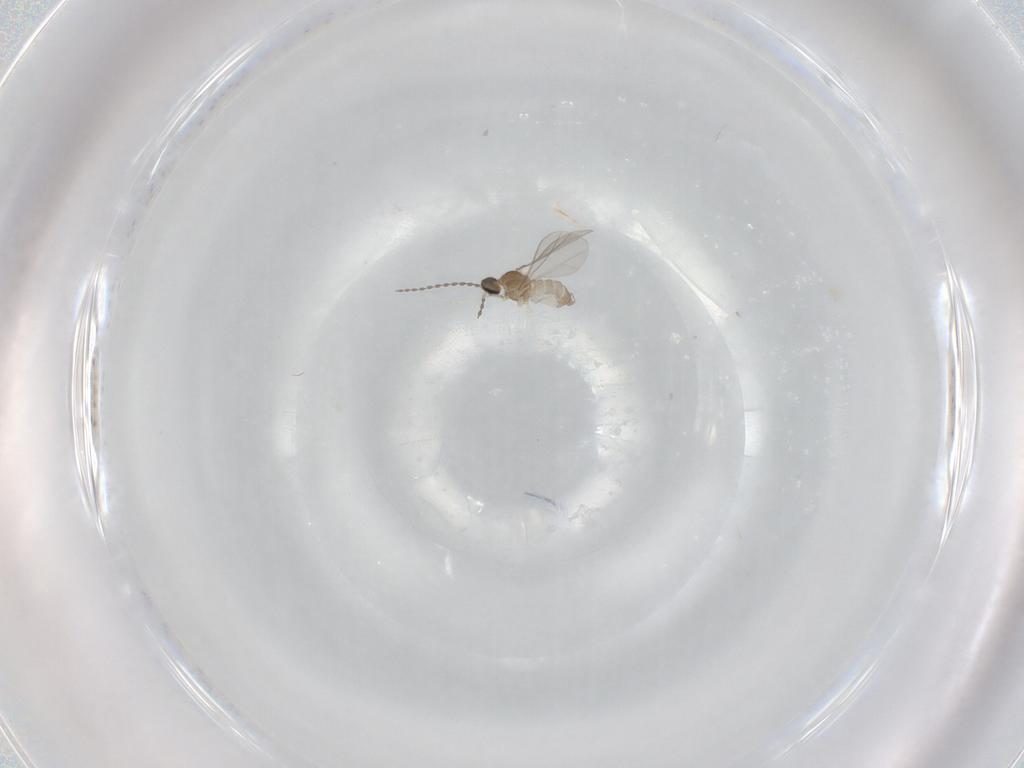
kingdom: Animalia
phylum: Arthropoda
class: Insecta
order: Diptera
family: Cecidomyiidae
